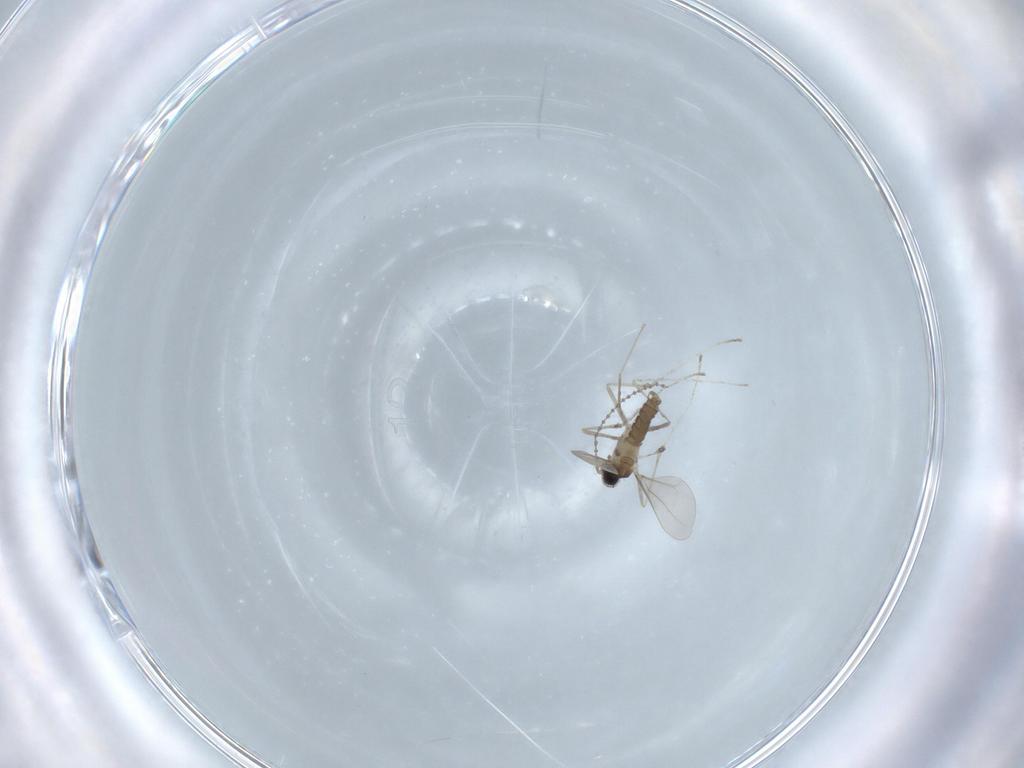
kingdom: Animalia
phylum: Arthropoda
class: Insecta
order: Diptera
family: Cecidomyiidae
